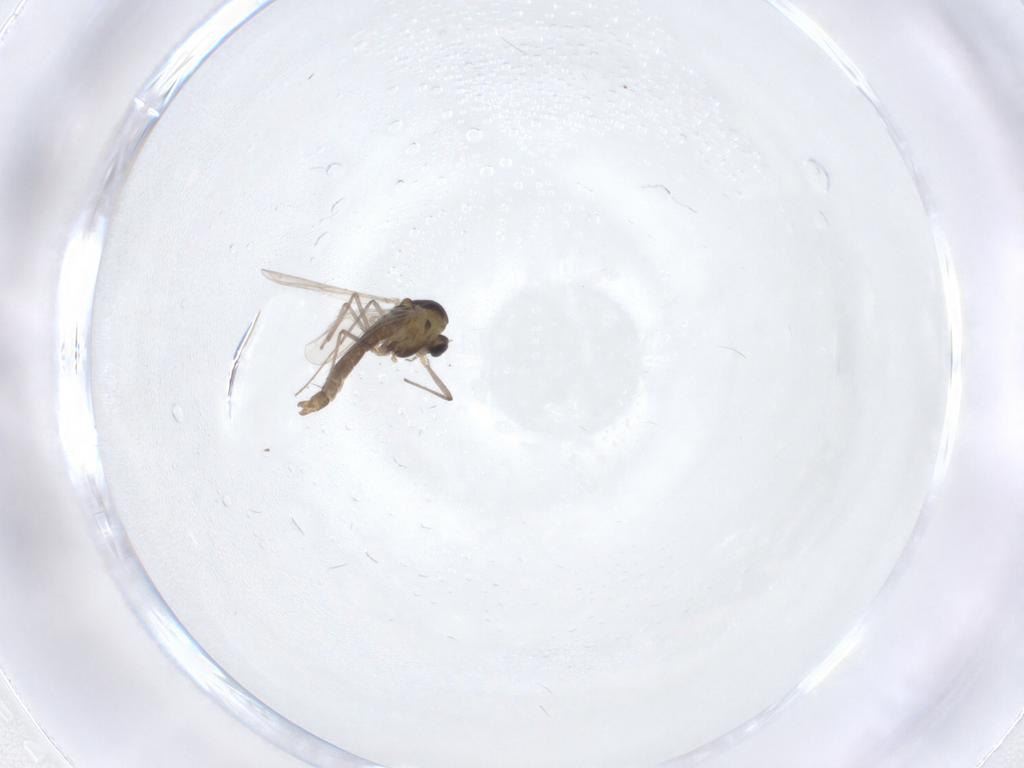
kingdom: Animalia
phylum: Arthropoda
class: Insecta
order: Diptera
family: Chironomidae
